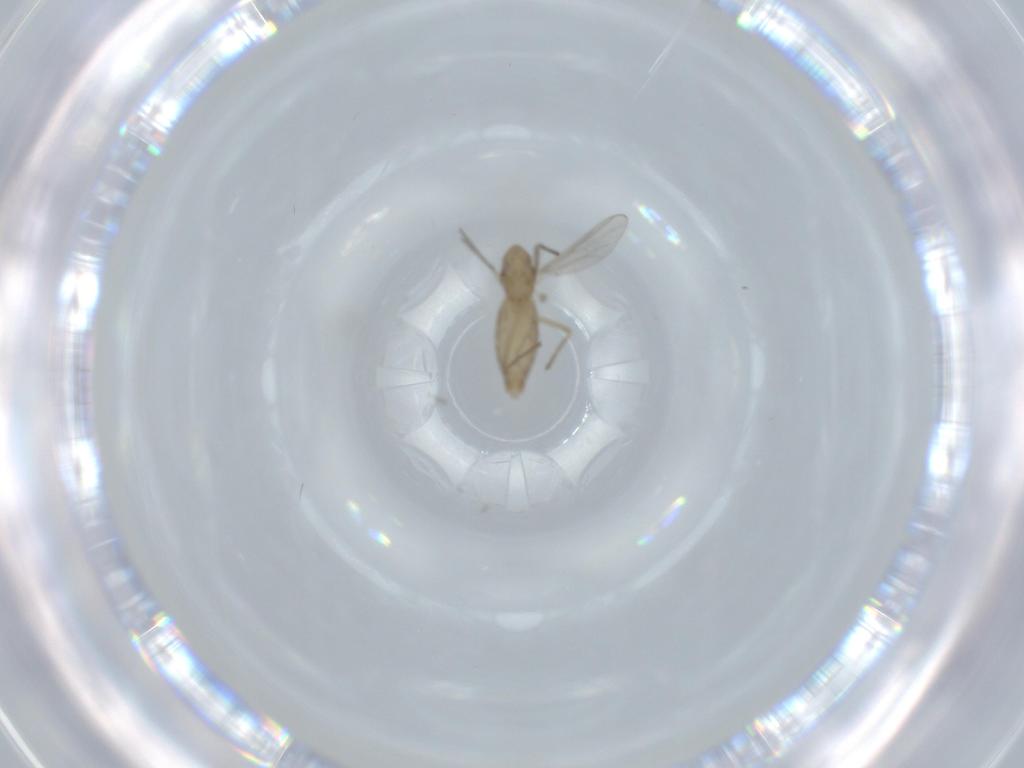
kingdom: Animalia
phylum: Arthropoda
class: Insecta
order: Diptera
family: Chironomidae
